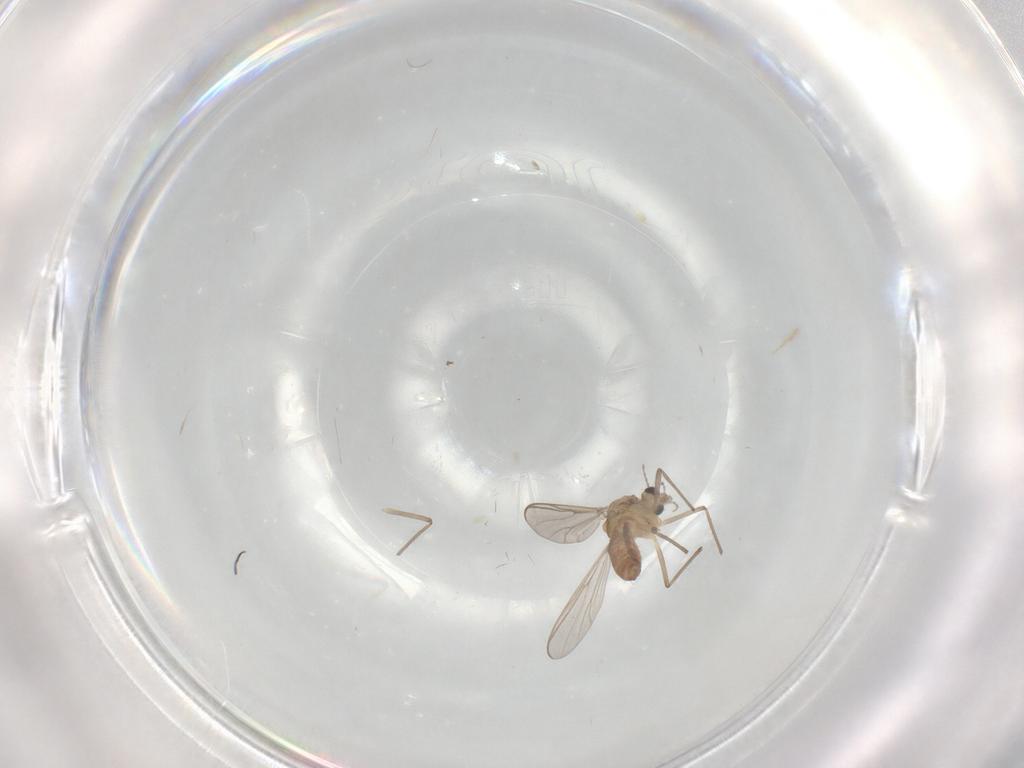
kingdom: Animalia
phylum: Arthropoda
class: Insecta
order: Diptera
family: Chironomidae
